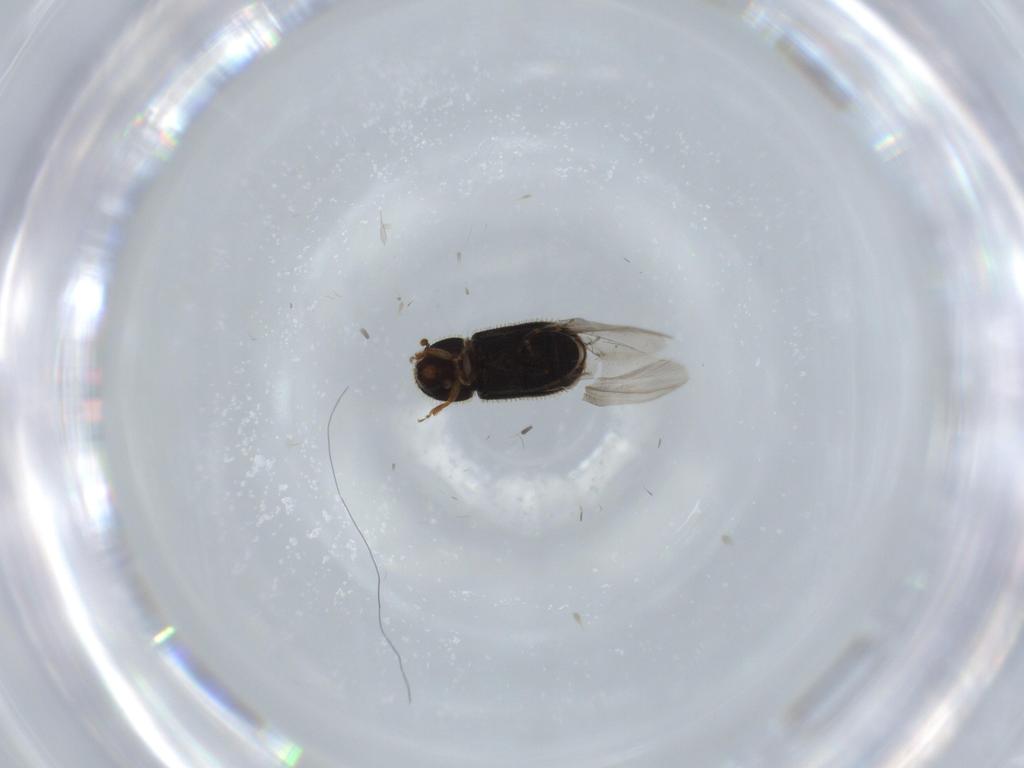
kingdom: Animalia
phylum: Arthropoda
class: Insecta
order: Coleoptera
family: Curculionidae
